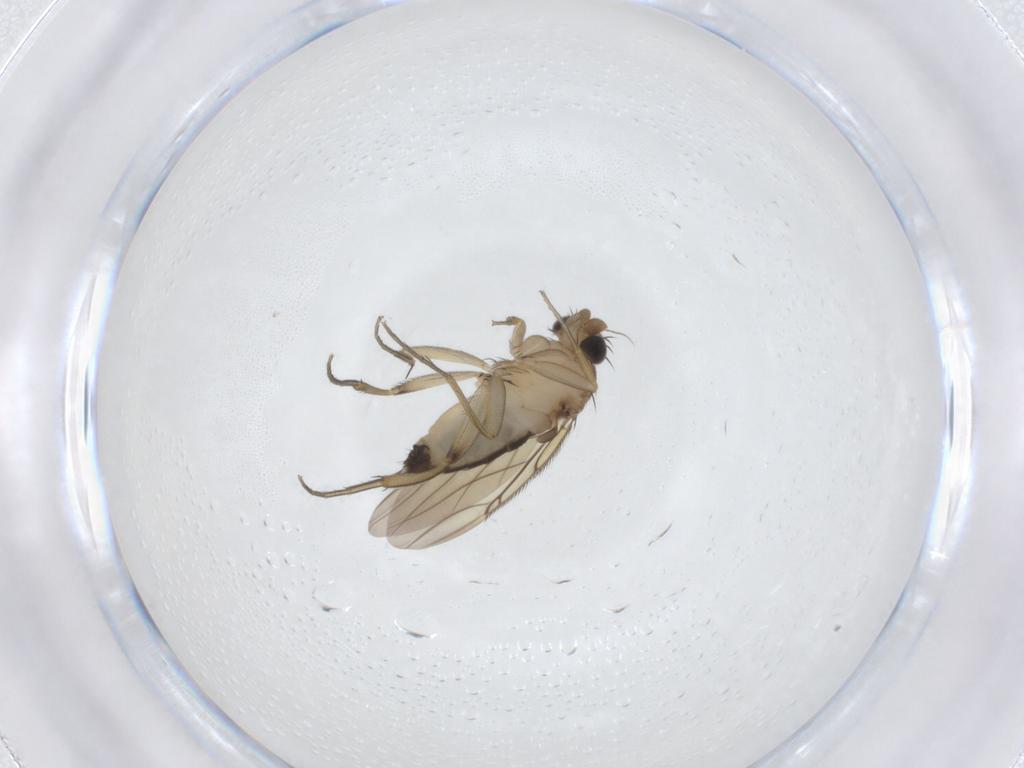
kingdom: Animalia
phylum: Arthropoda
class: Insecta
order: Diptera
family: Phoridae
